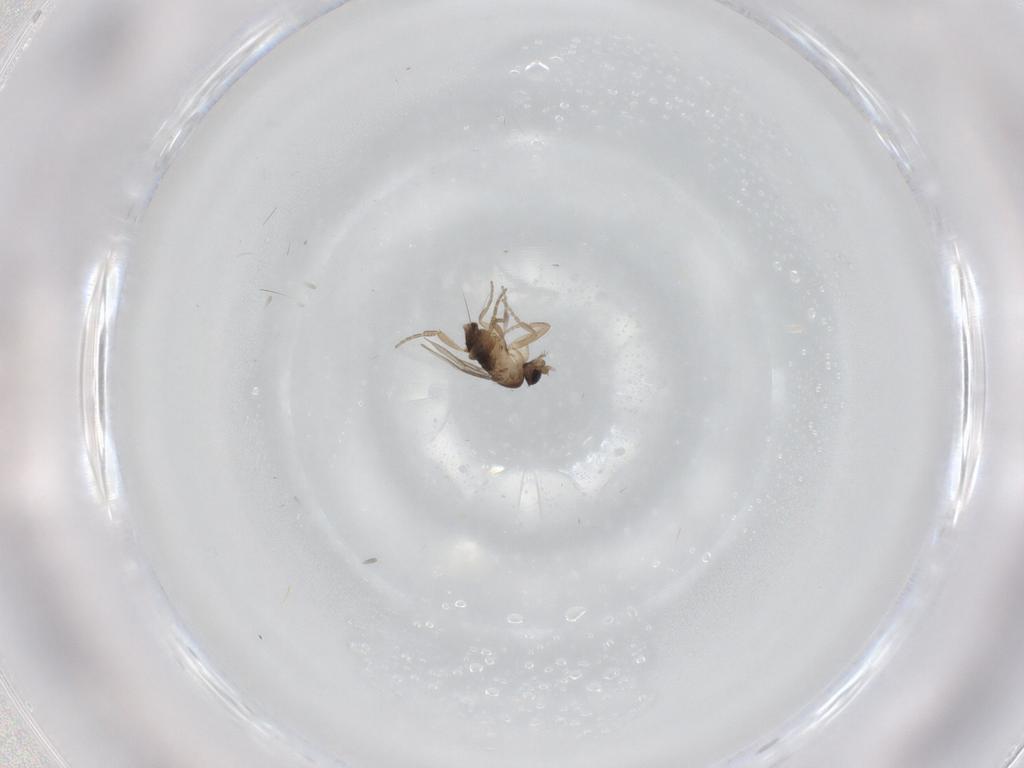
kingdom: Animalia
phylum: Arthropoda
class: Insecta
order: Diptera
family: Phoridae
